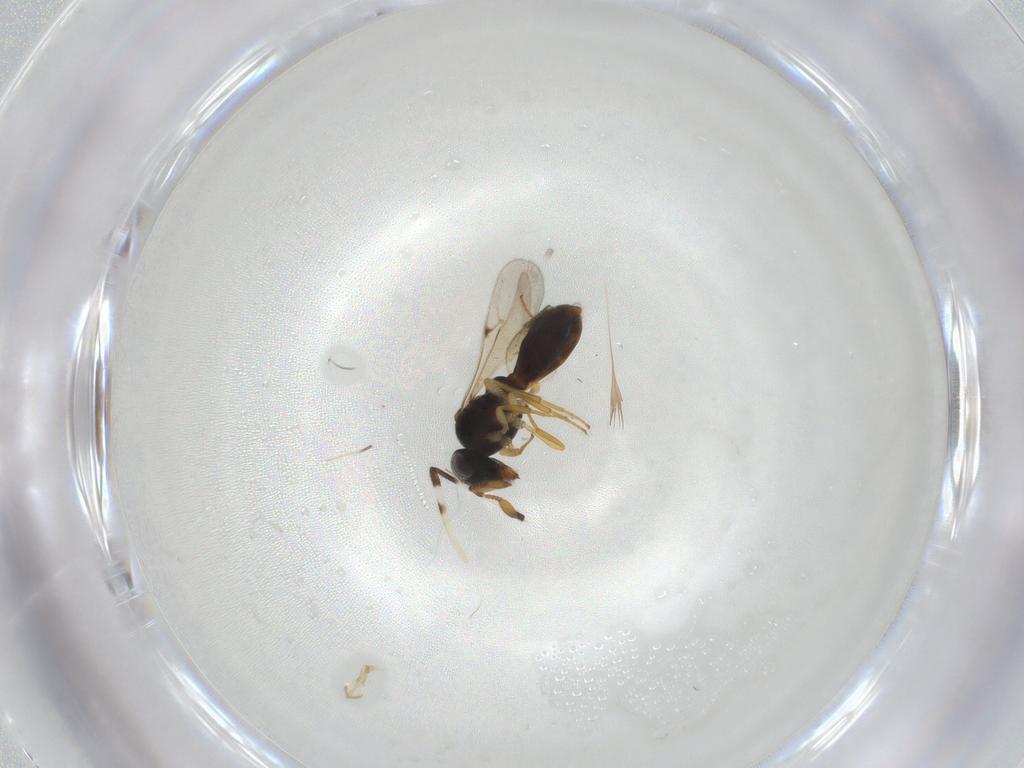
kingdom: Animalia
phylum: Arthropoda
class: Insecta
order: Hymenoptera
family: Scelionidae
